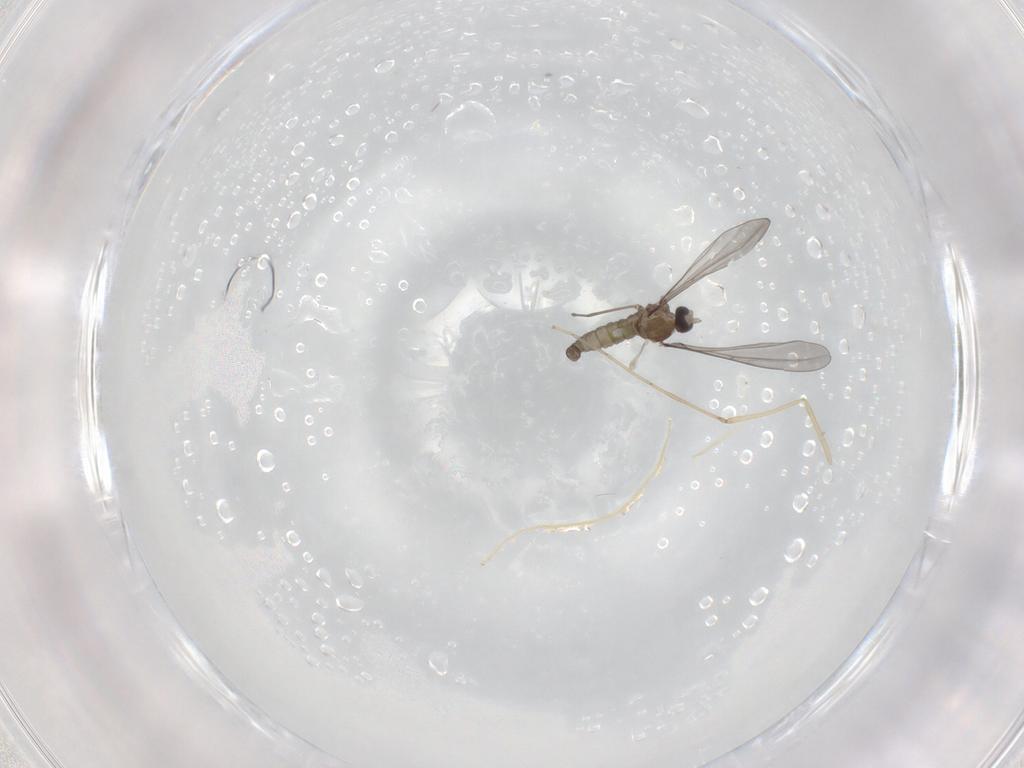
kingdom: Animalia
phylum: Arthropoda
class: Insecta
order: Diptera
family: Cecidomyiidae
